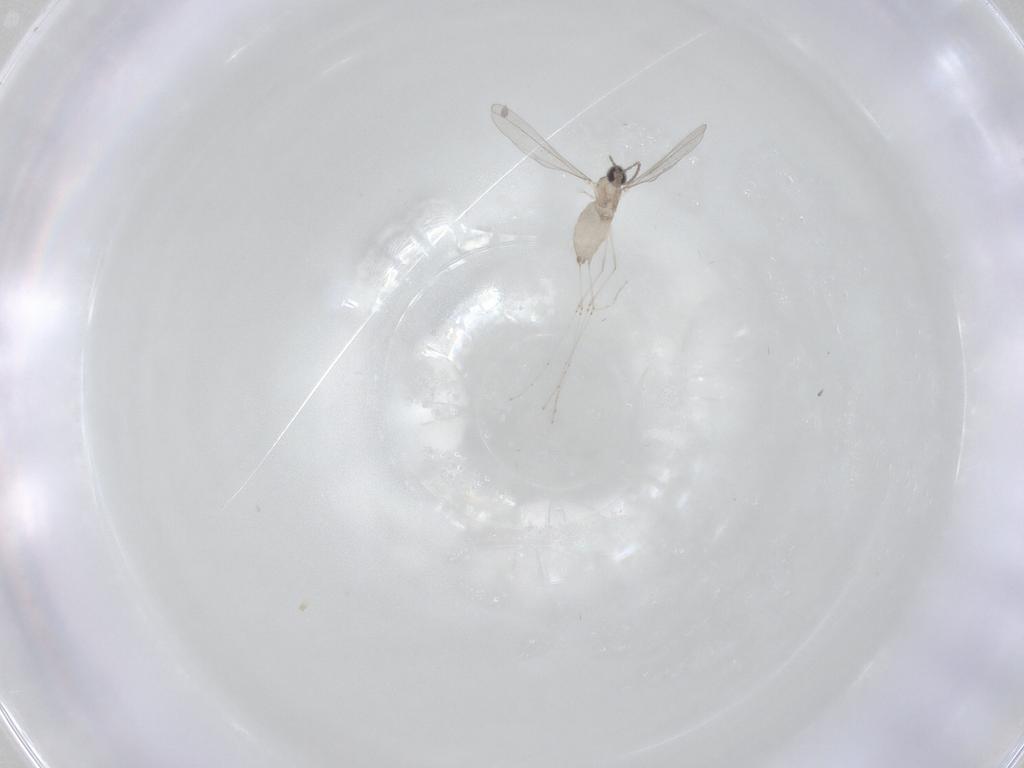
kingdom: Animalia
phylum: Arthropoda
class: Insecta
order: Diptera
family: Cecidomyiidae
